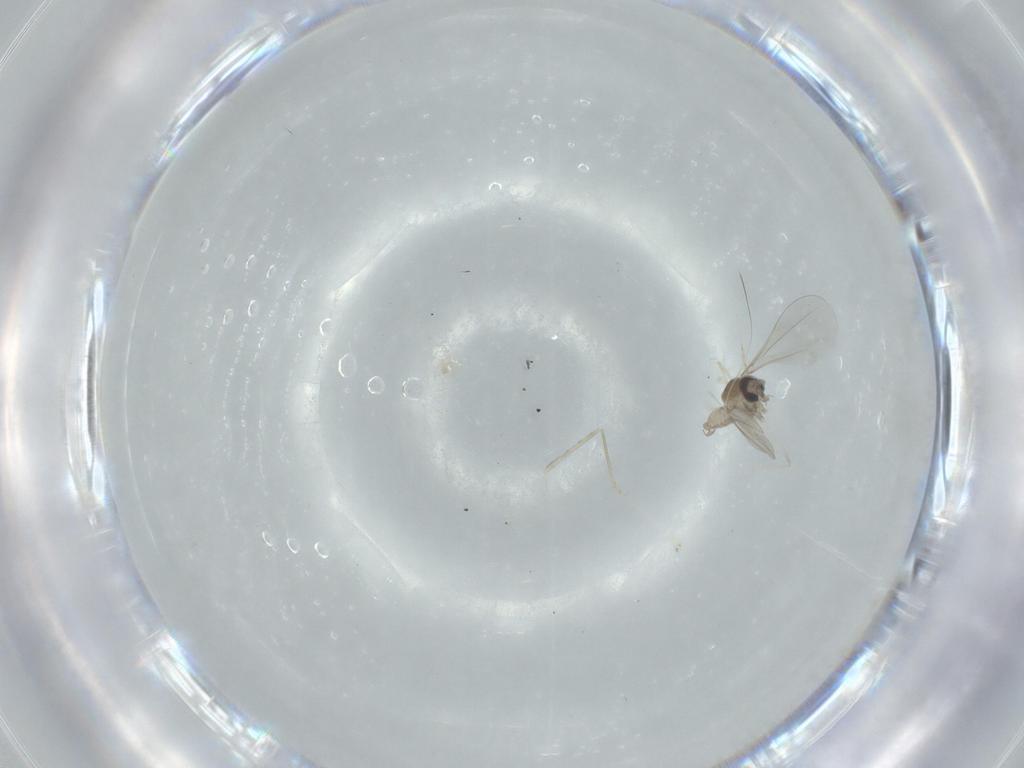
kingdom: Animalia
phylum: Arthropoda
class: Insecta
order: Diptera
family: Cecidomyiidae
